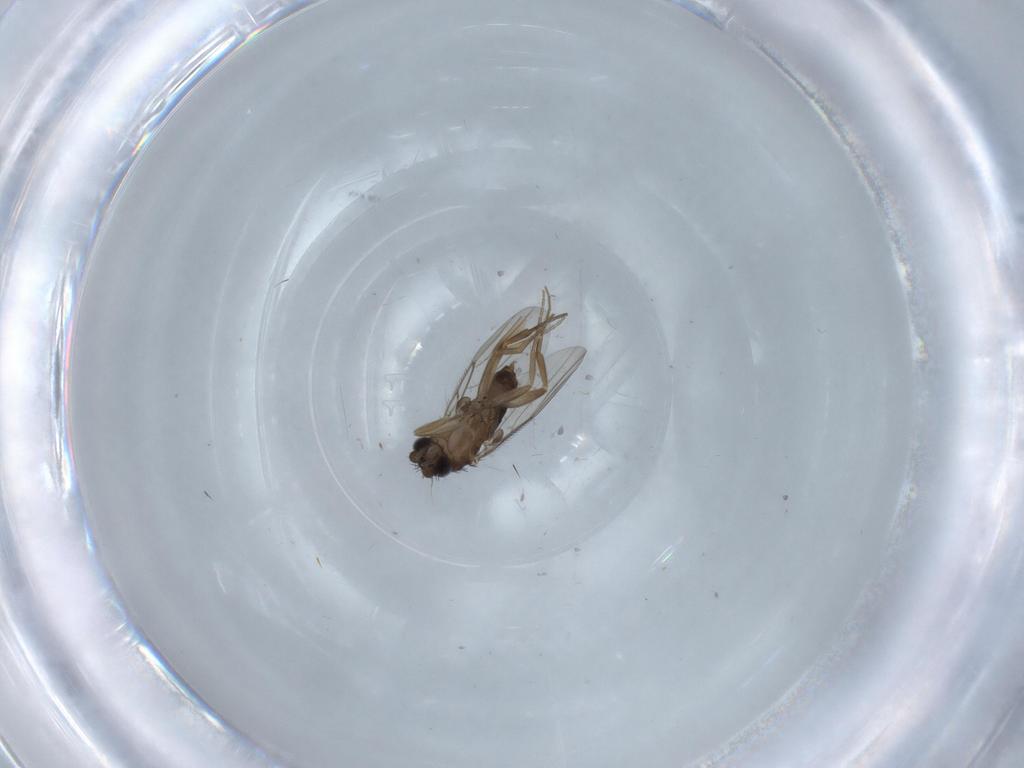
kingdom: Animalia
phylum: Arthropoda
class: Insecta
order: Diptera
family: Phoridae
